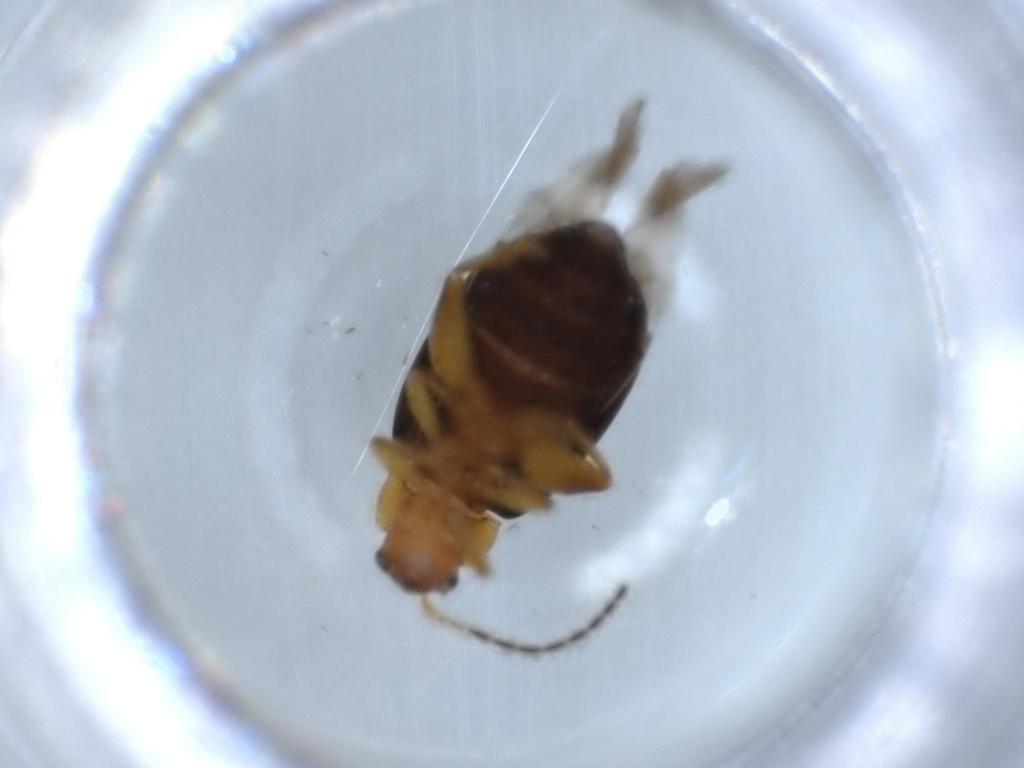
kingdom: Animalia
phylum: Arthropoda
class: Insecta
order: Coleoptera
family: Chrysomelidae
